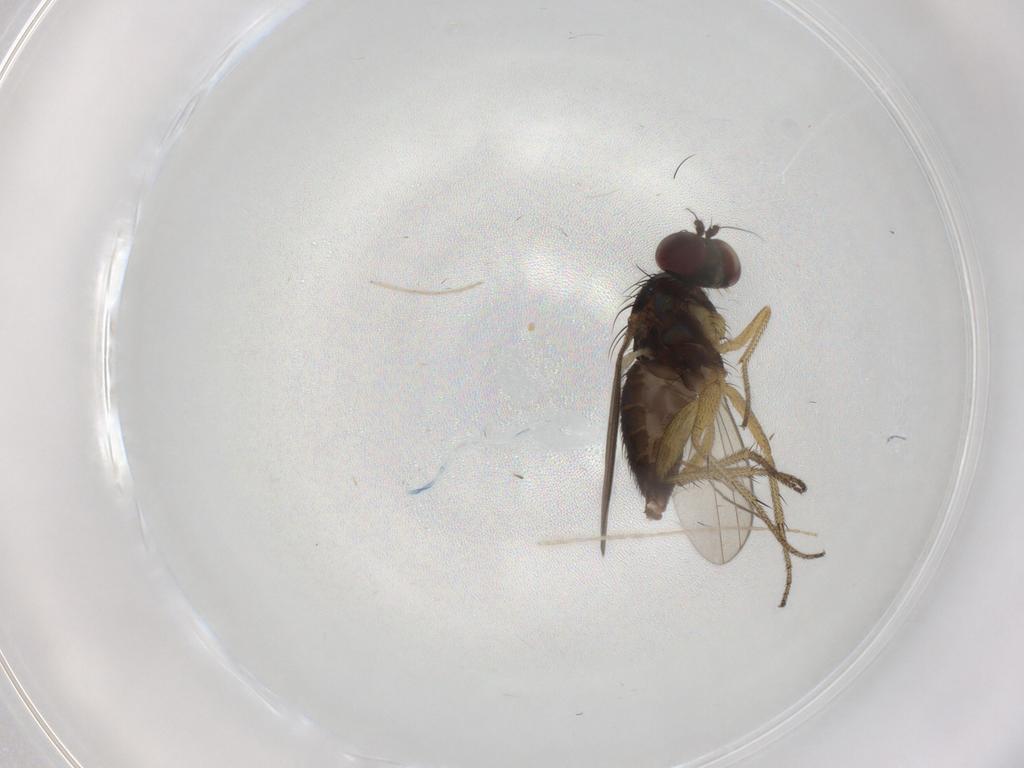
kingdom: Animalia
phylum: Arthropoda
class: Insecta
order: Diptera
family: Dolichopodidae
